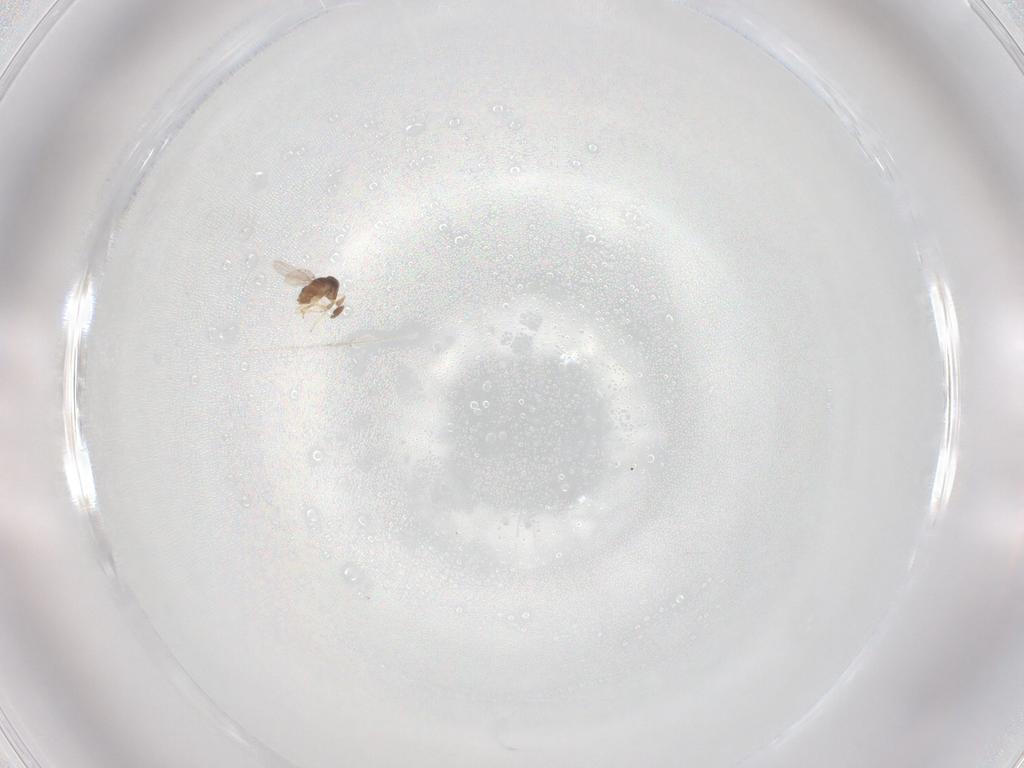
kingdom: Animalia
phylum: Arthropoda
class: Insecta
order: Hymenoptera
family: Encyrtidae
